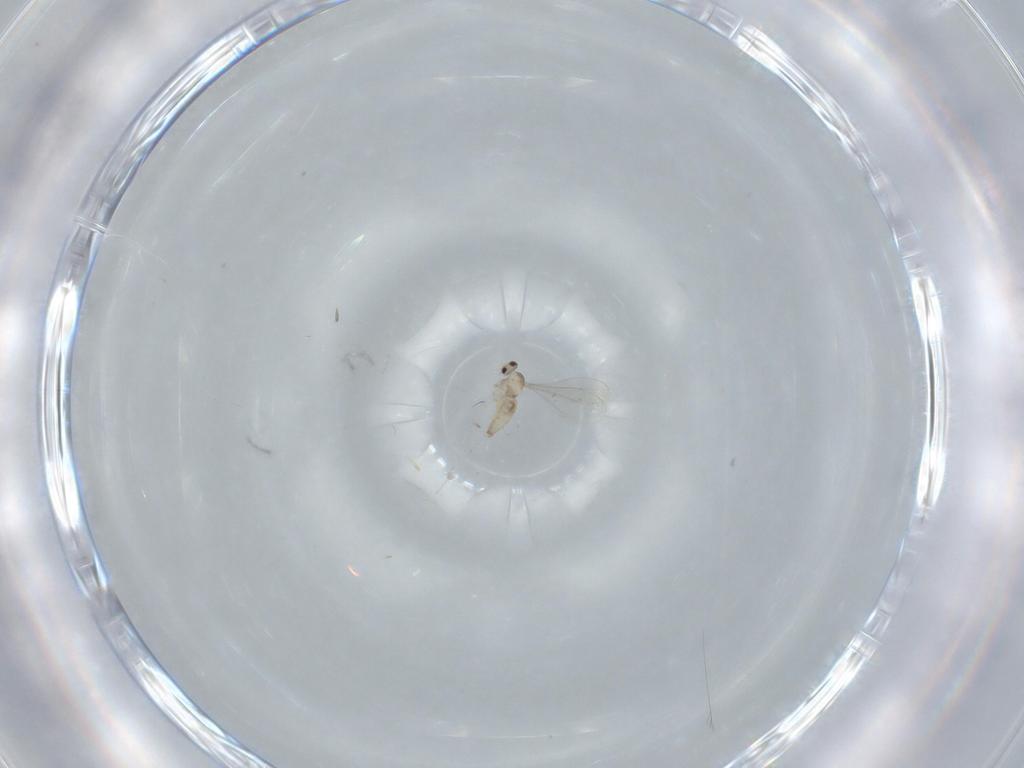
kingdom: Animalia
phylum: Arthropoda
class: Insecta
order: Diptera
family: Cecidomyiidae
